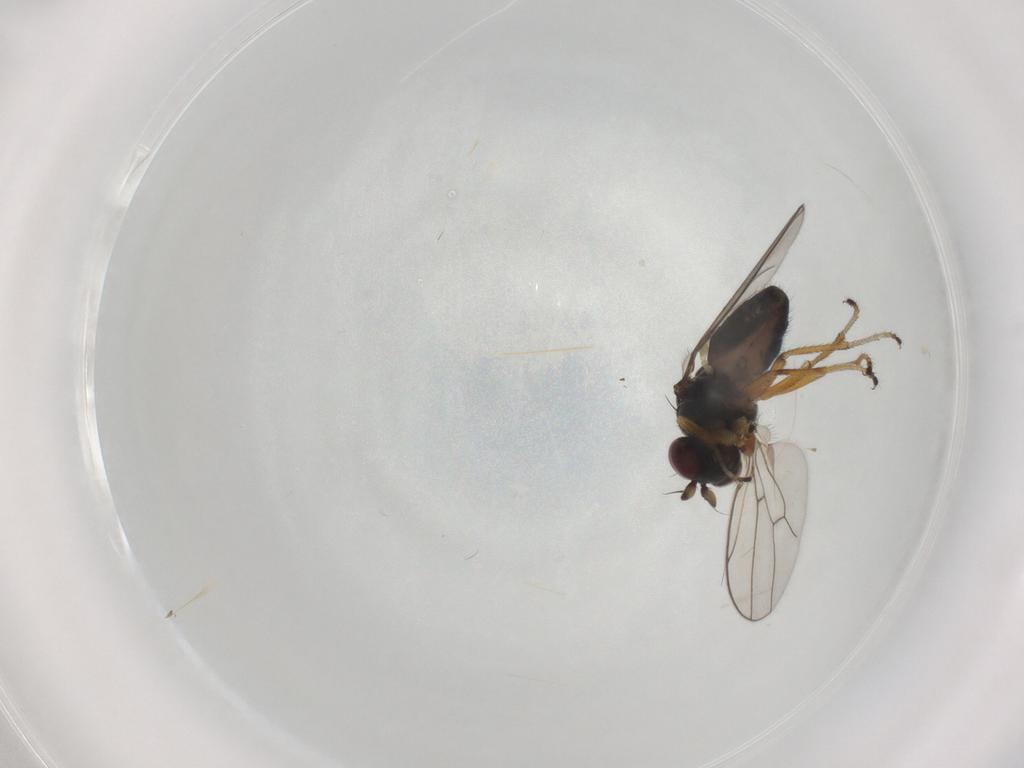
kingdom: Animalia
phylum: Arthropoda
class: Insecta
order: Diptera
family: Ephydridae
